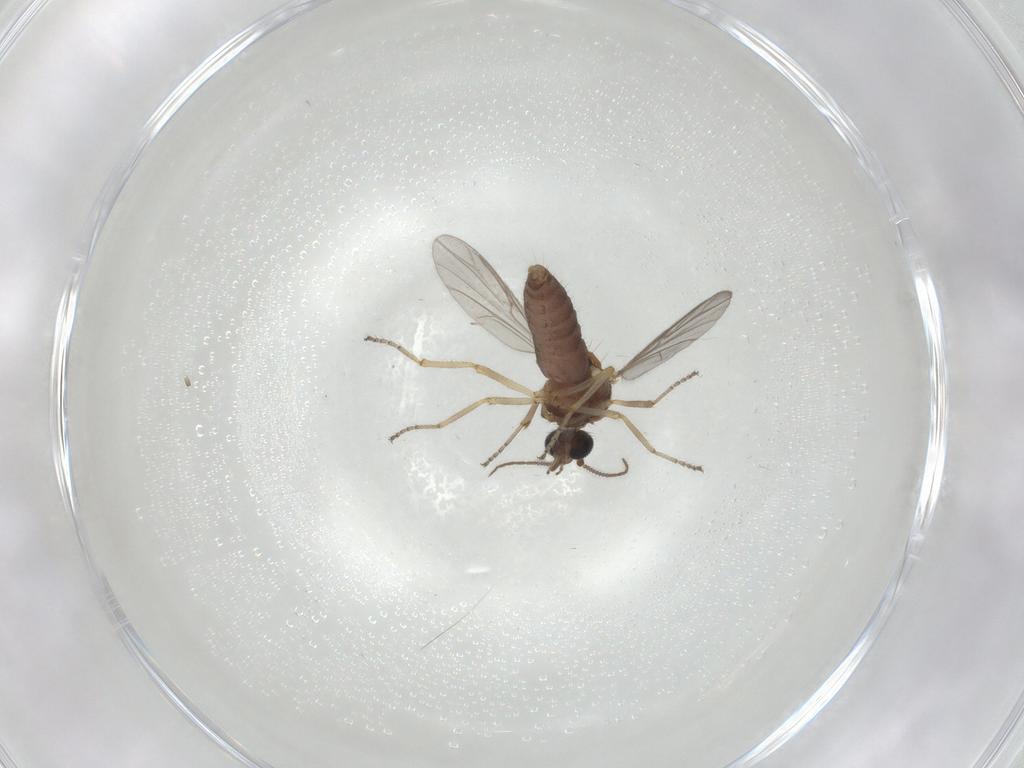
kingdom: Animalia
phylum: Arthropoda
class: Insecta
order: Diptera
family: Ceratopogonidae
